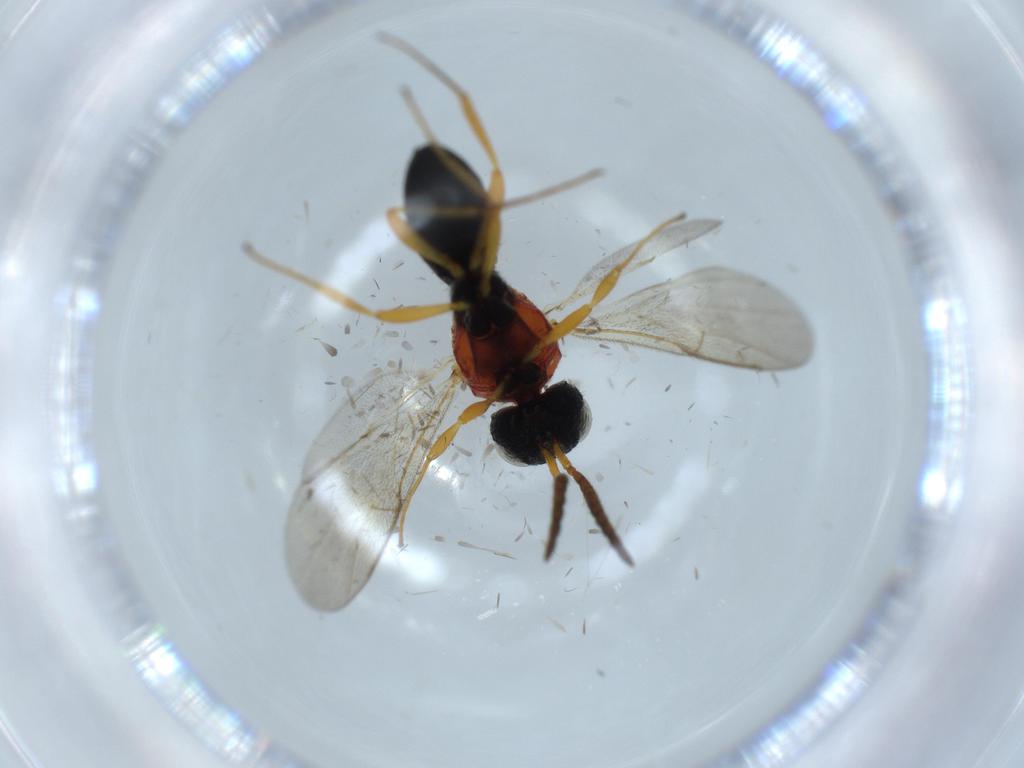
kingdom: Animalia
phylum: Arthropoda
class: Insecta
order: Hymenoptera
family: Scelionidae
